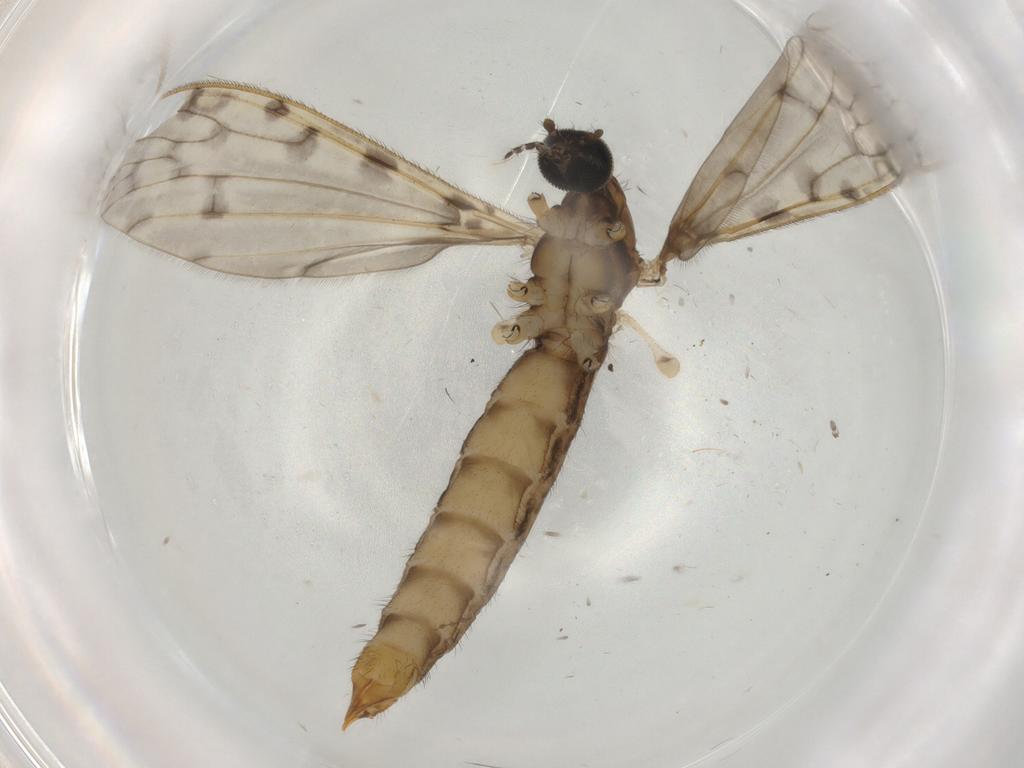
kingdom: Animalia
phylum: Arthropoda
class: Insecta
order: Diptera
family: Limoniidae
